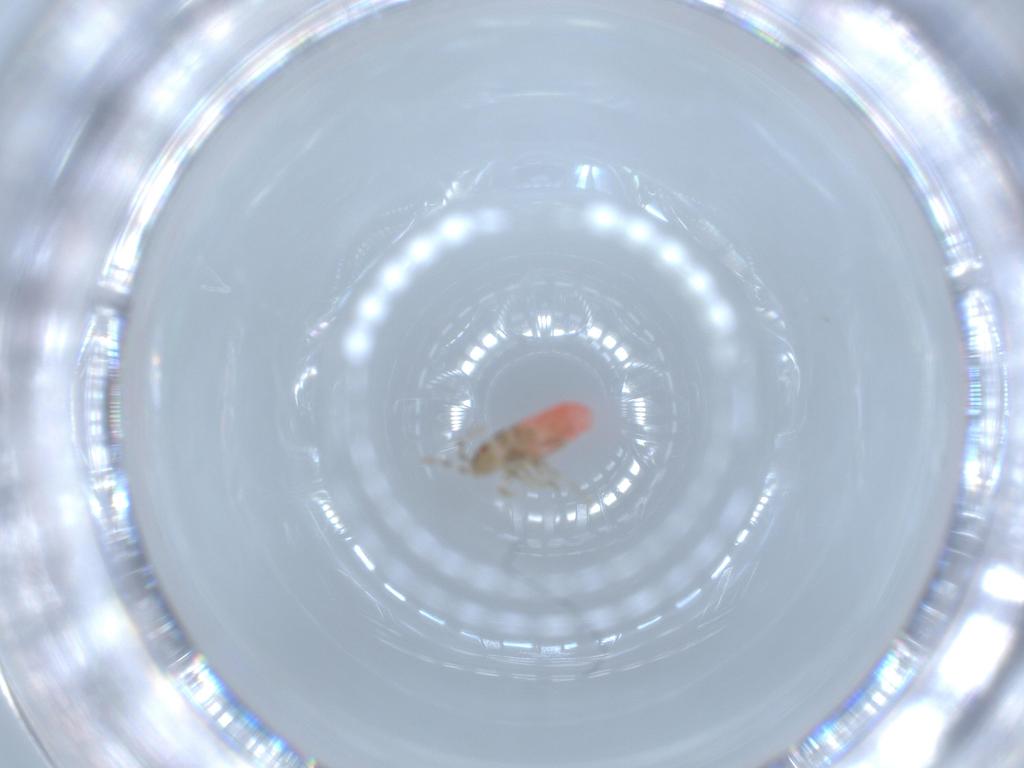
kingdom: Animalia
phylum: Arthropoda
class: Insecta
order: Hemiptera
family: Rhyparochromidae
